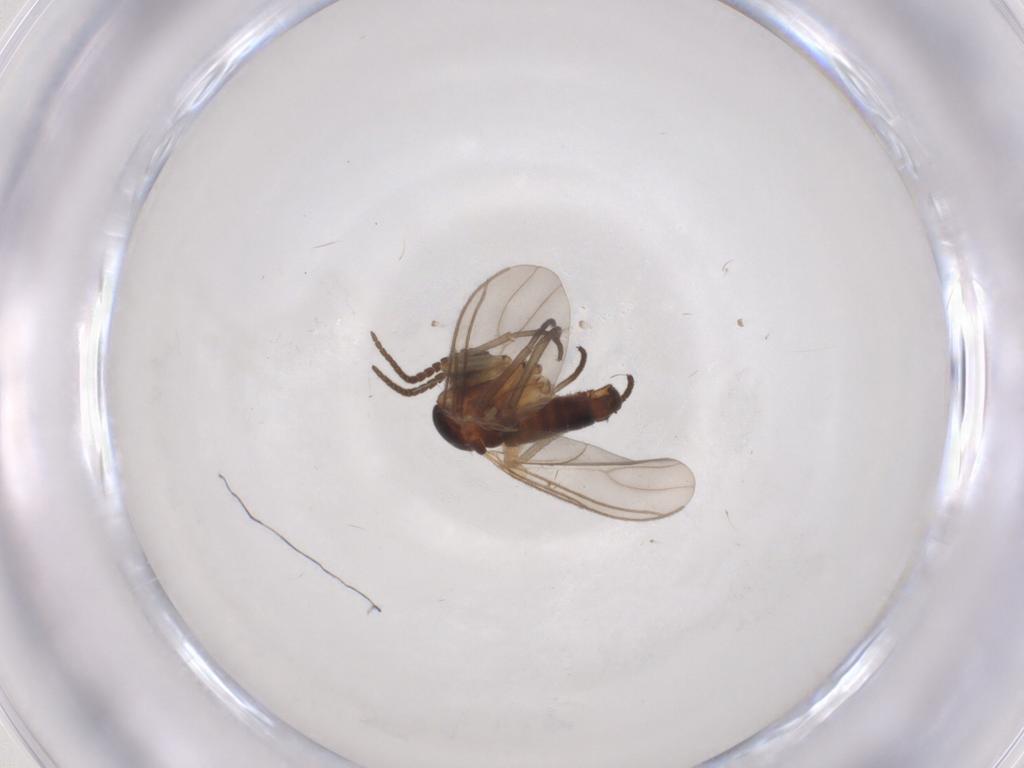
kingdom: Animalia
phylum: Arthropoda
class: Insecta
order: Diptera
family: Sciaridae
